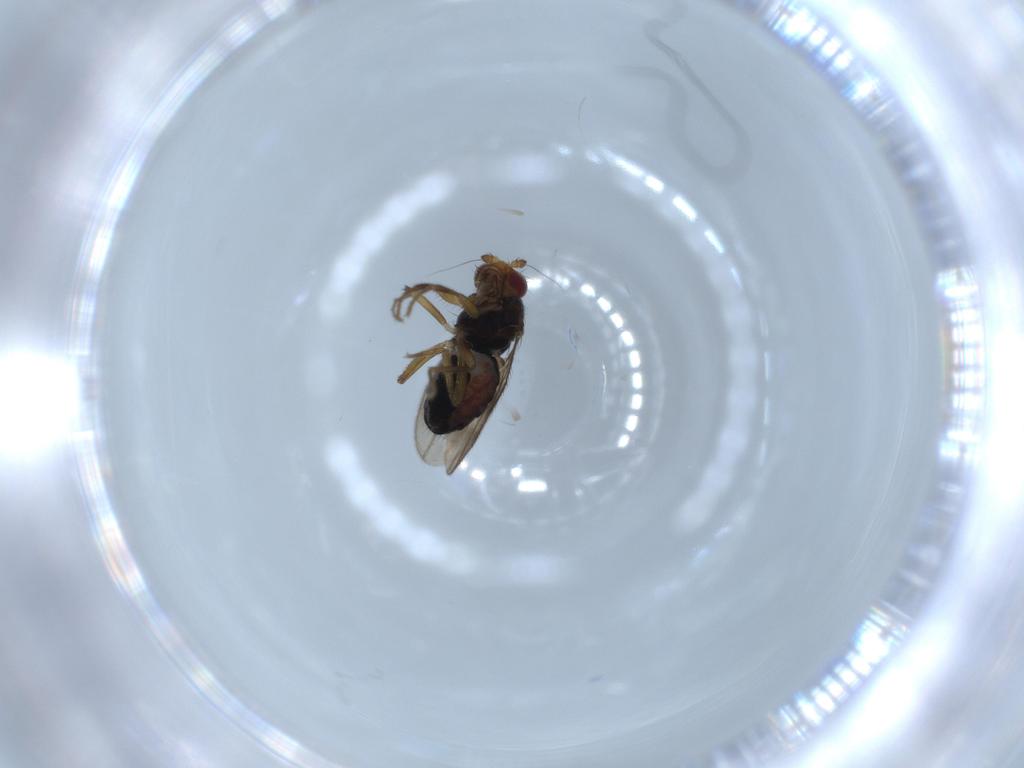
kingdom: Animalia
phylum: Arthropoda
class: Insecta
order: Diptera
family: Sphaeroceridae
